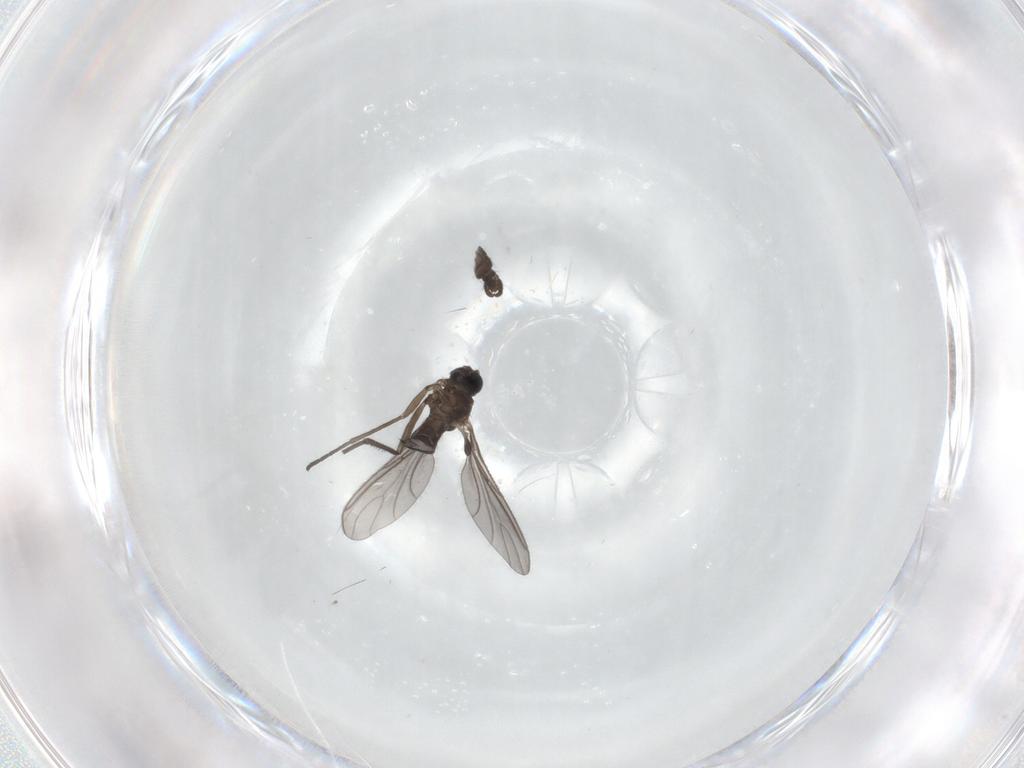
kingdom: Animalia
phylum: Arthropoda
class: Insecta
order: Diptera
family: Sciaridae
